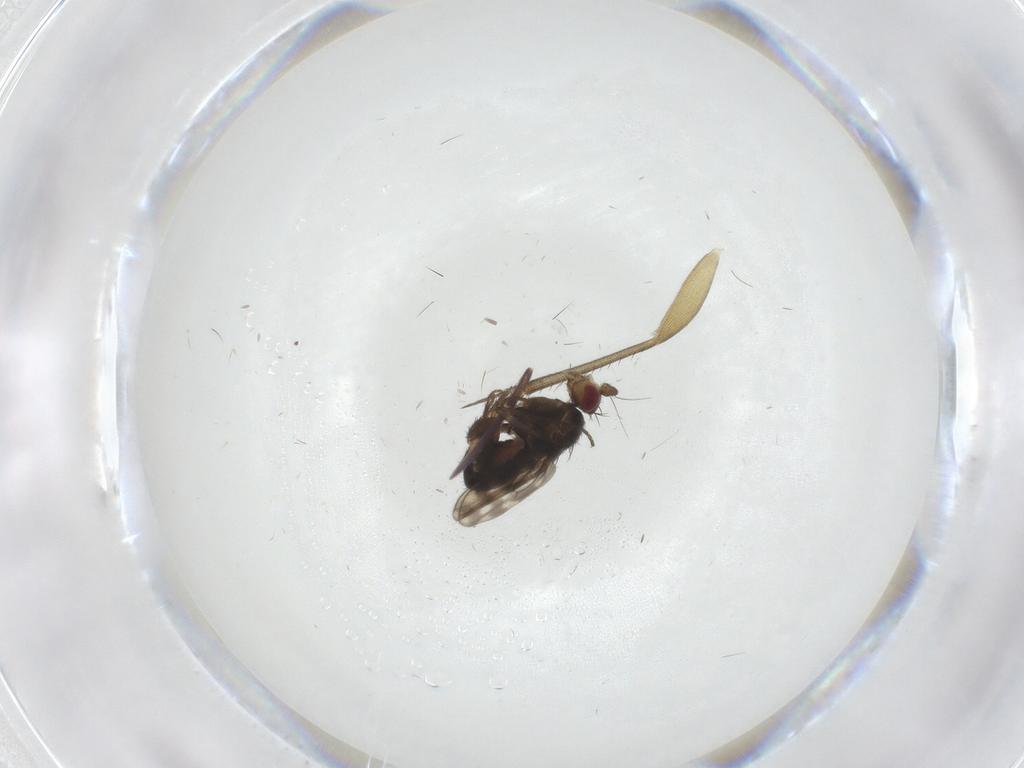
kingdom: Animalia
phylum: Arthropoda
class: Insecta
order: Diptera
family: Sphaeroceridae
